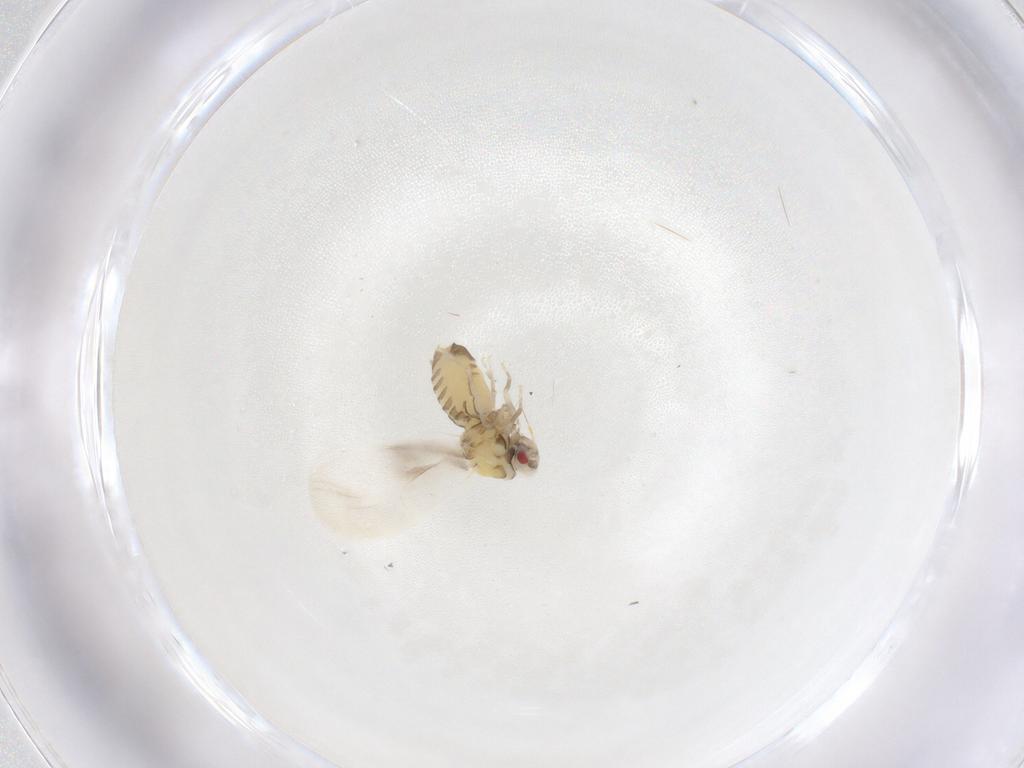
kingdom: Animalia
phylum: Arthropoda
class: Insecta
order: Hemiptera
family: Aleyrodidae
